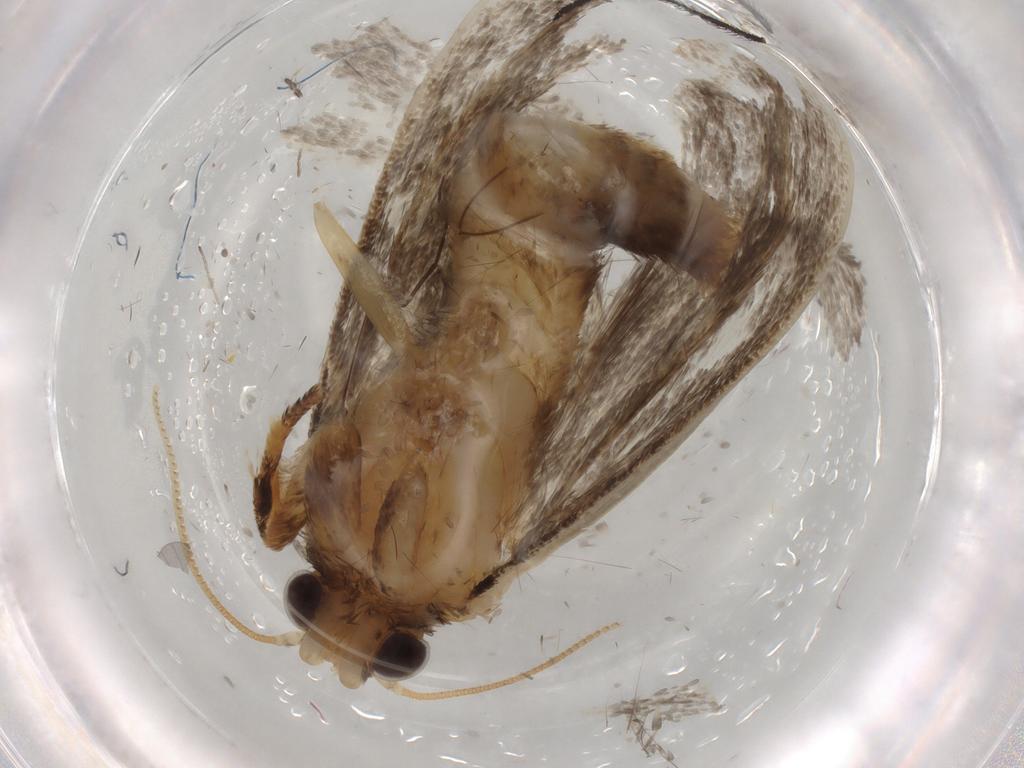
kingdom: Animalia
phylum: Arthropoda
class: Insecta
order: Lepidoptera
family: Tineidae
